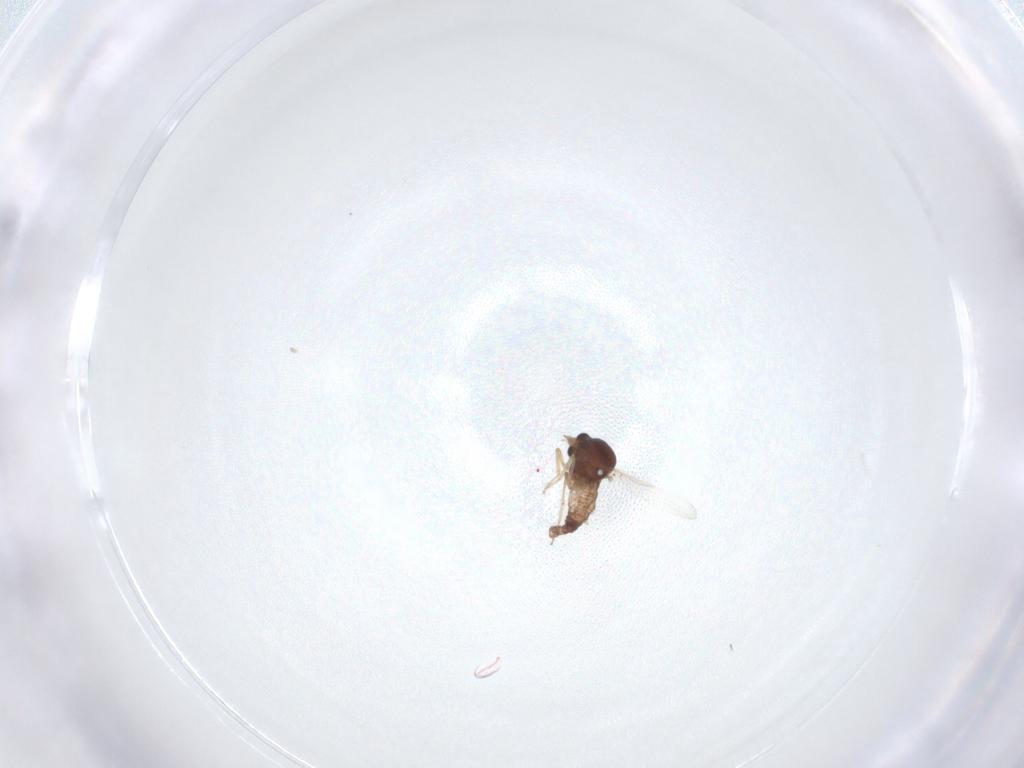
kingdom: Animalia
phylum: Arthropoda
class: Insecta
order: Diptera
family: Ceratopogonidae
